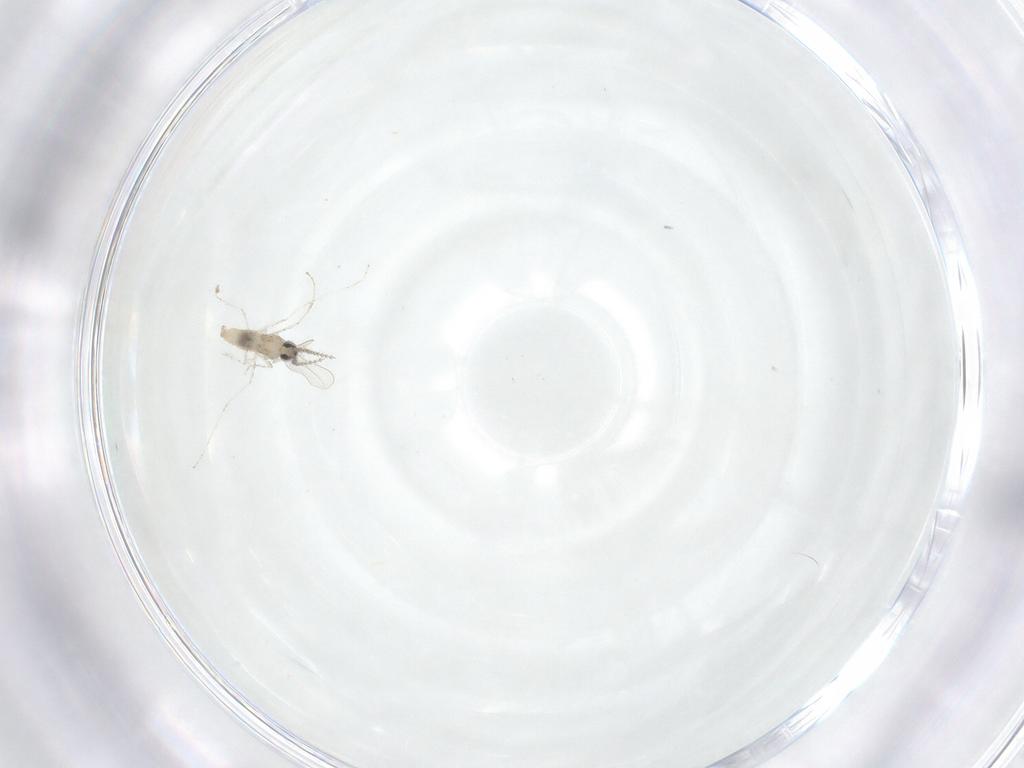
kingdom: Animalia
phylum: Arthropoda
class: Insecta
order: Diptera
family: Cecidomyiidae
